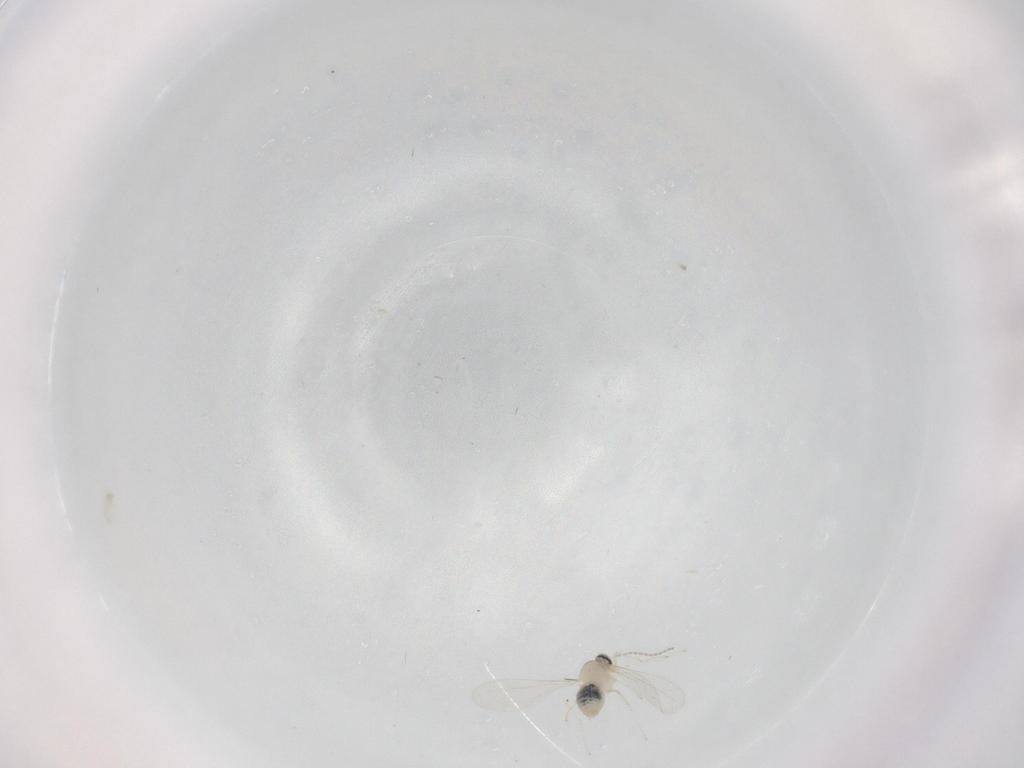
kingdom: Animalia
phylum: Arthropoda
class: Insecta
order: Diptera
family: Cecidomyiidae
